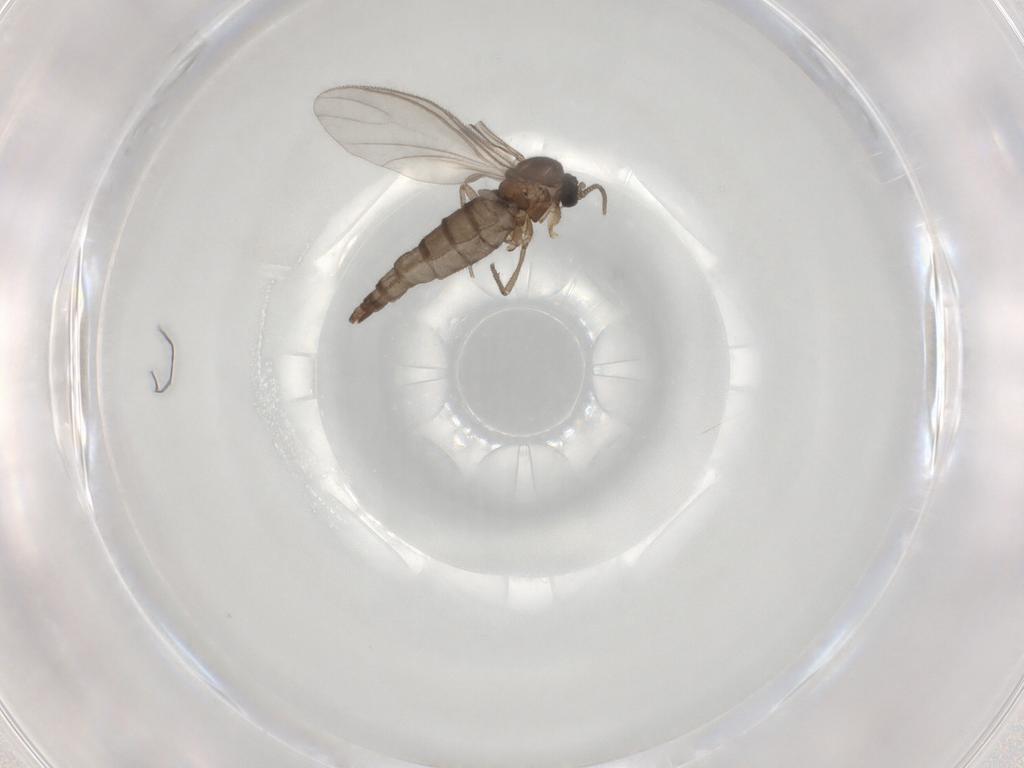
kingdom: Animalia
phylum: Arthropoda
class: Insecta
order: Diptera
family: Sciaridae
